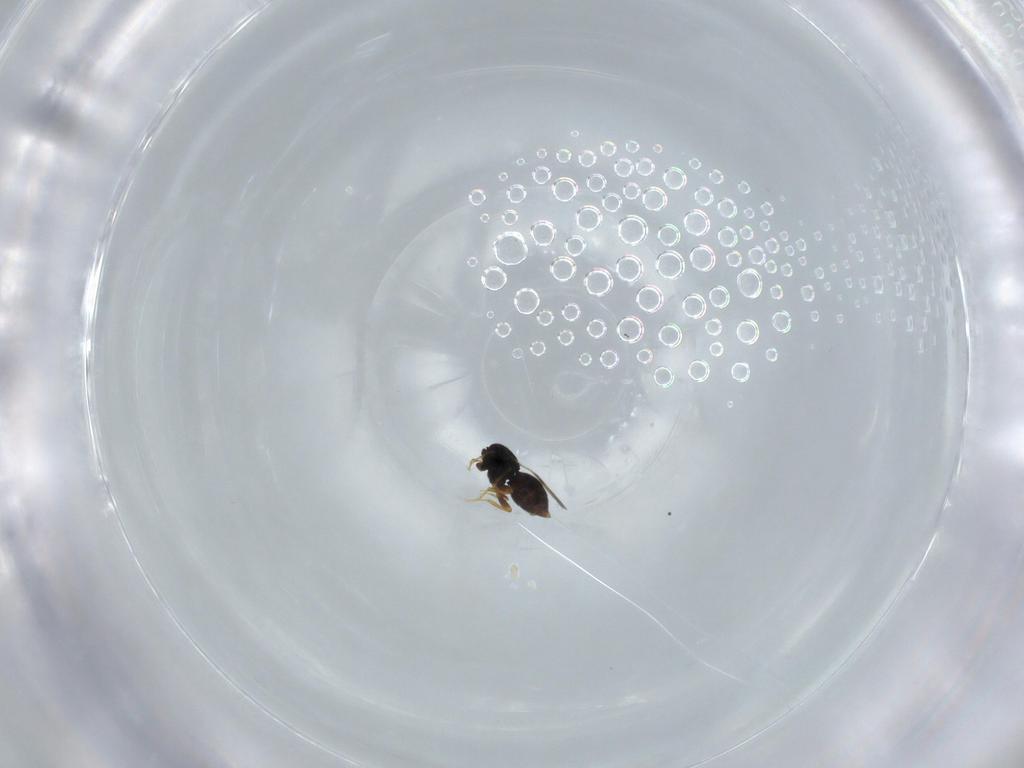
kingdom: Animalia
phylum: Arthropoda
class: Insecta
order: Hymenoptera
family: Ceraphronidae
